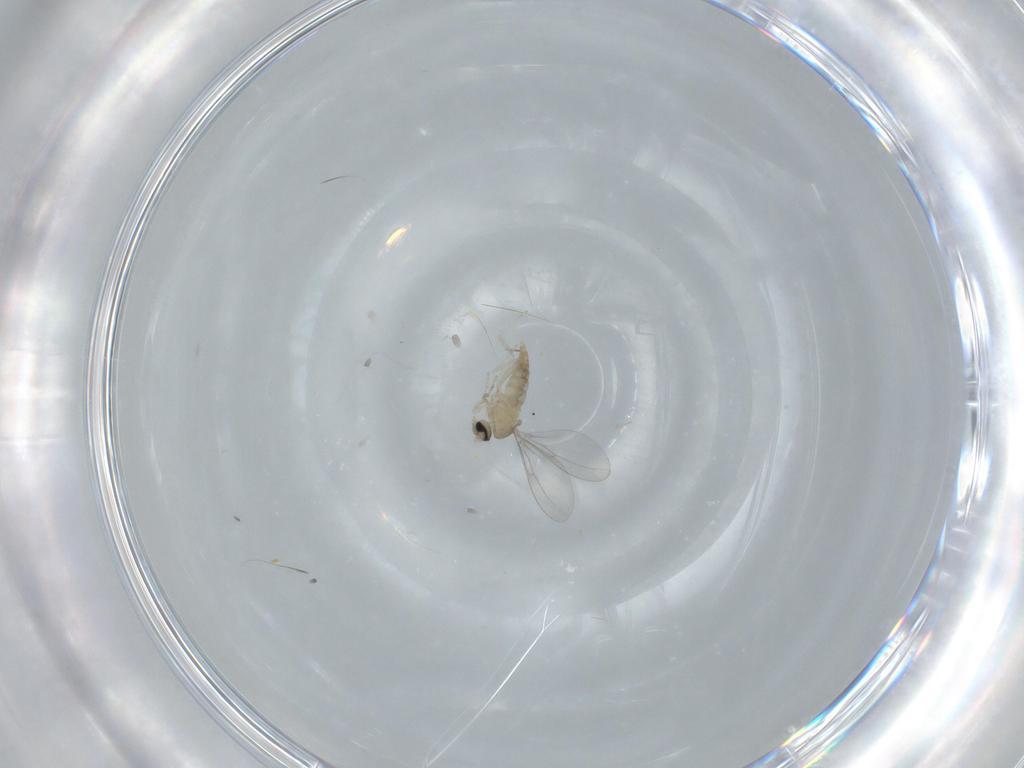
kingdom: Animalia
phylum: Arthropoda
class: Insecta
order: Diptera
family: Cecidomyiidae
